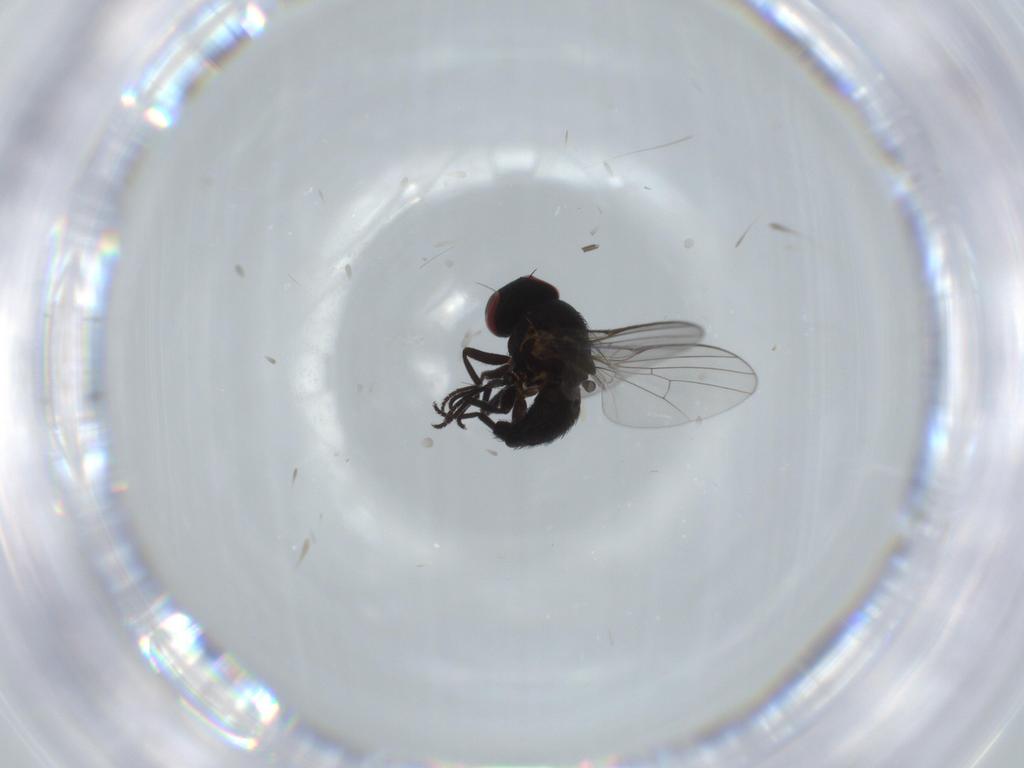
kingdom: Animalia
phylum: Arthropoda
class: Insecta
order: Diptera
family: Agromyzidae
